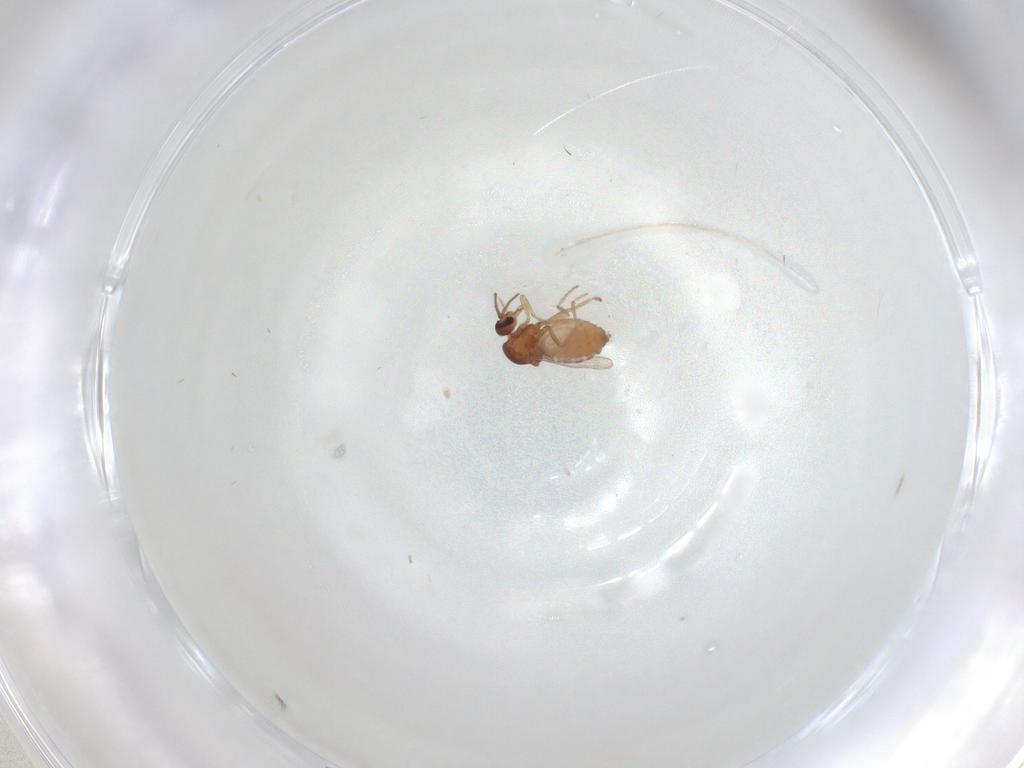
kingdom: Animalia
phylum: Arthropoda
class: Insecta
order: Diptera
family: Ceratopogonidae
